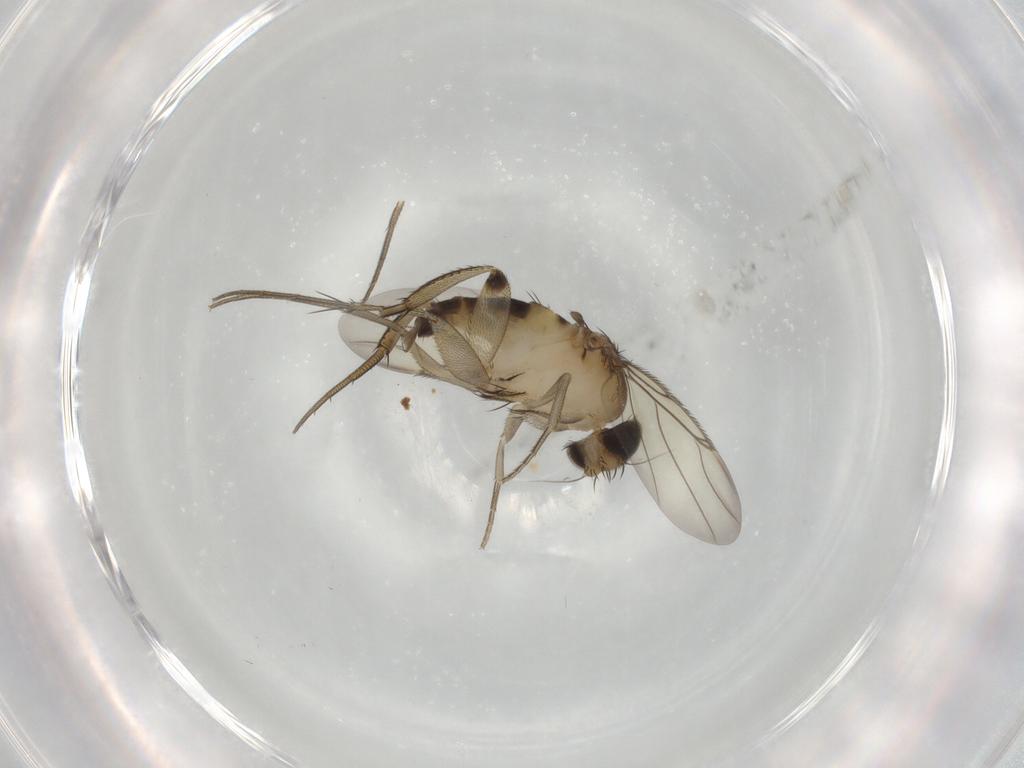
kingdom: Animalia
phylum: Arthropoda
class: Insecta
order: Diptera
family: Phoridae
